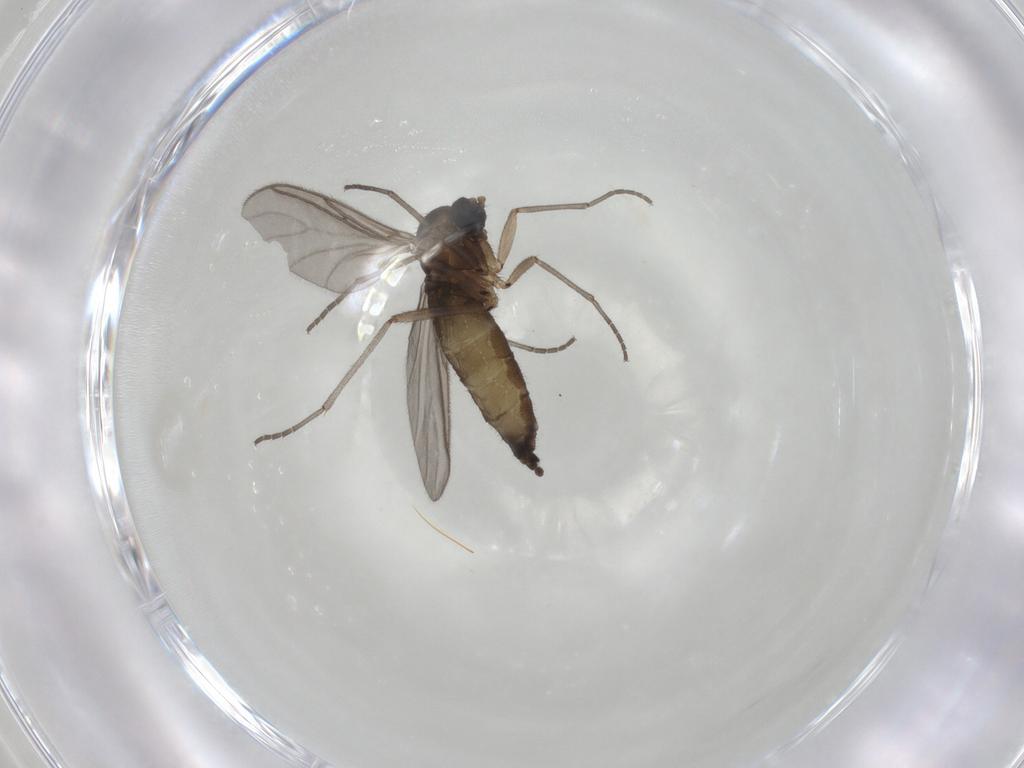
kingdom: Animalia
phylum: Arthropoda
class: Insecta
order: Diptera
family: Sciaridae
